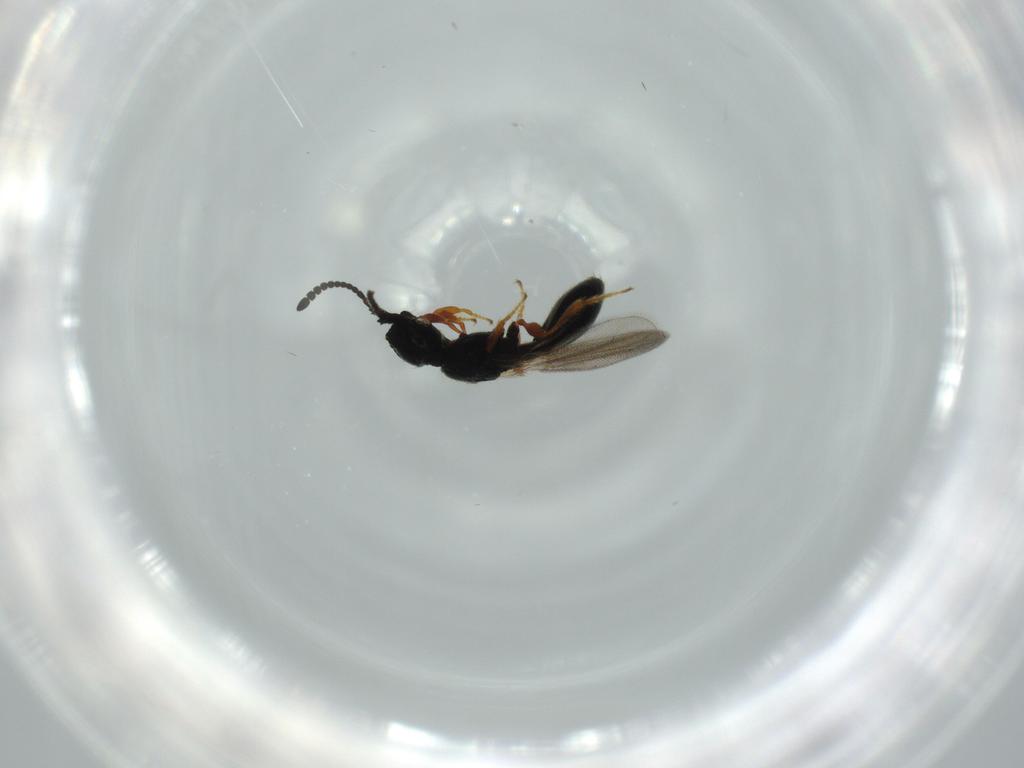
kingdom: Animalia
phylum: Arthropoda
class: Insecta
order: Hymenoptera
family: Diapriidae
